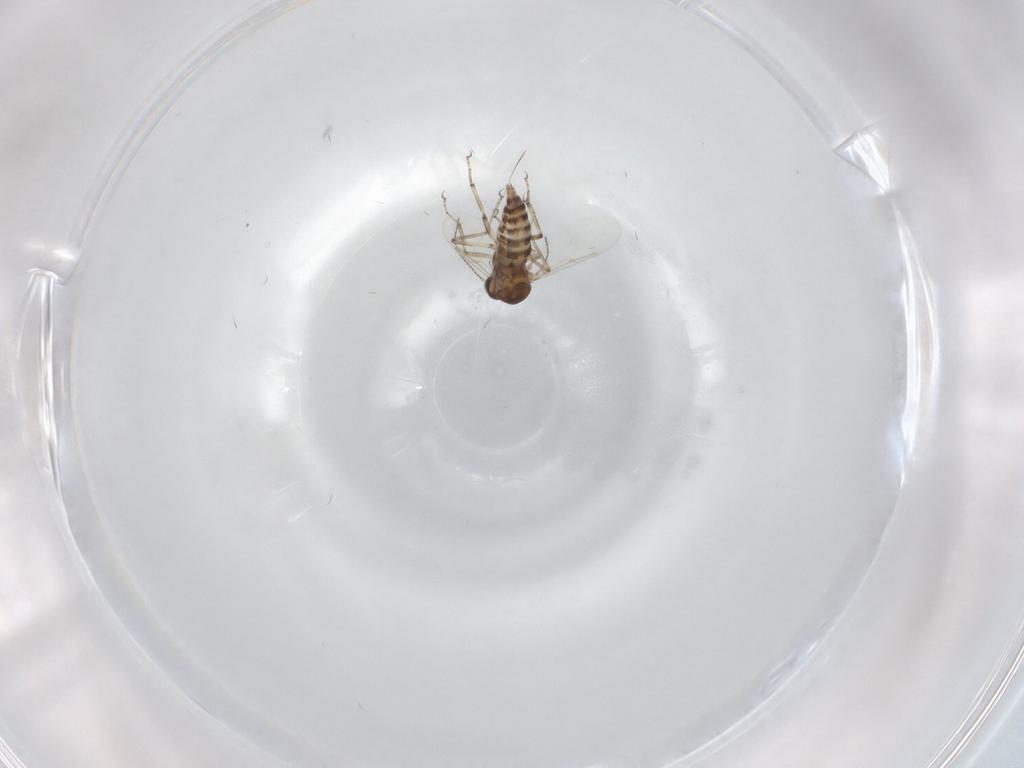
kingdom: Animalia
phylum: Arthropoda
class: Insecta
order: Diptera
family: Ceratopogonidae
